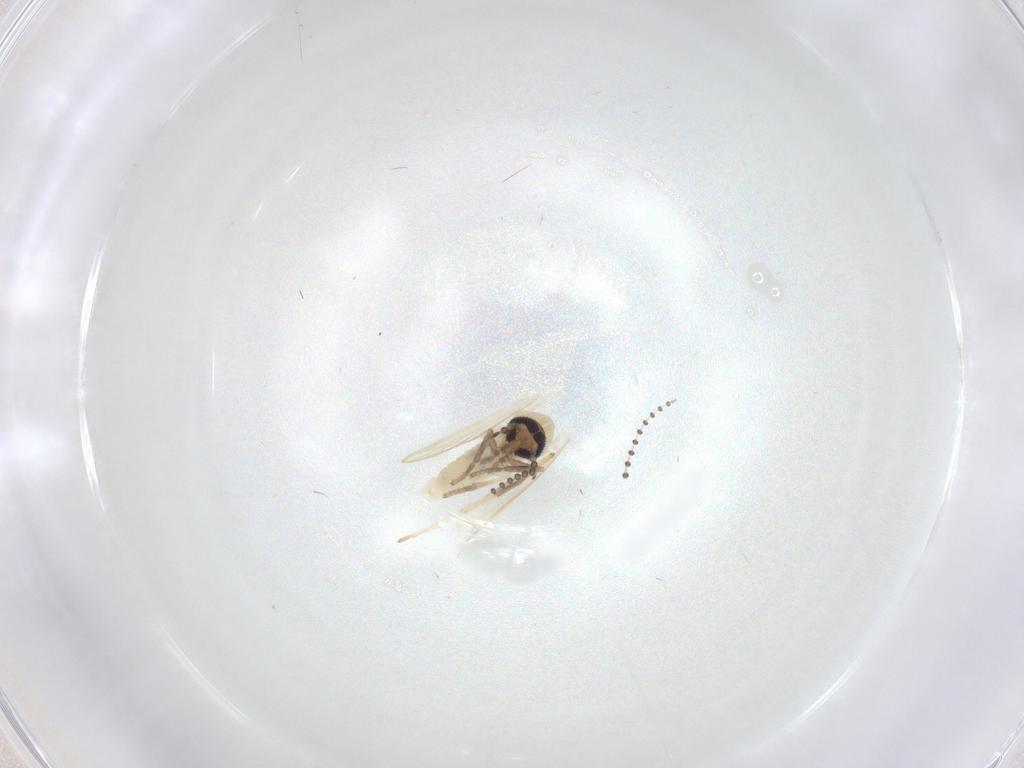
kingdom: Animalia
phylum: Arthropoda
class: Insecta
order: Diptera
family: Psychodidae
